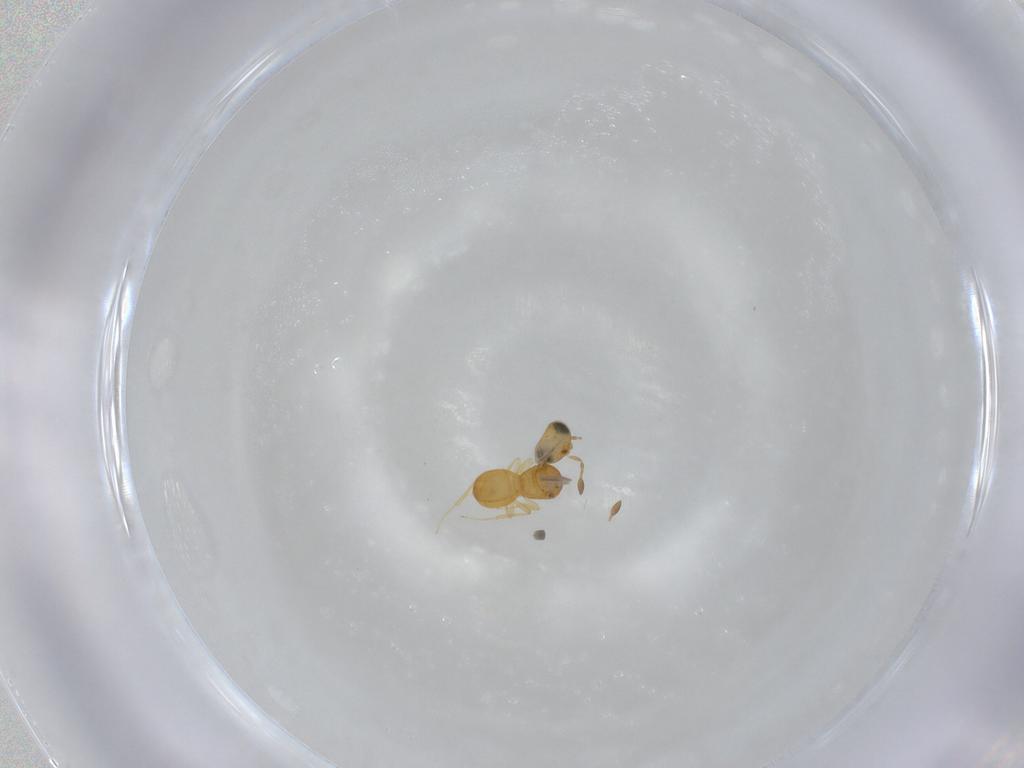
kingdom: Animalia
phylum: Arthropoda
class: Insecta
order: Hymenoptera
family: Scelionidae
